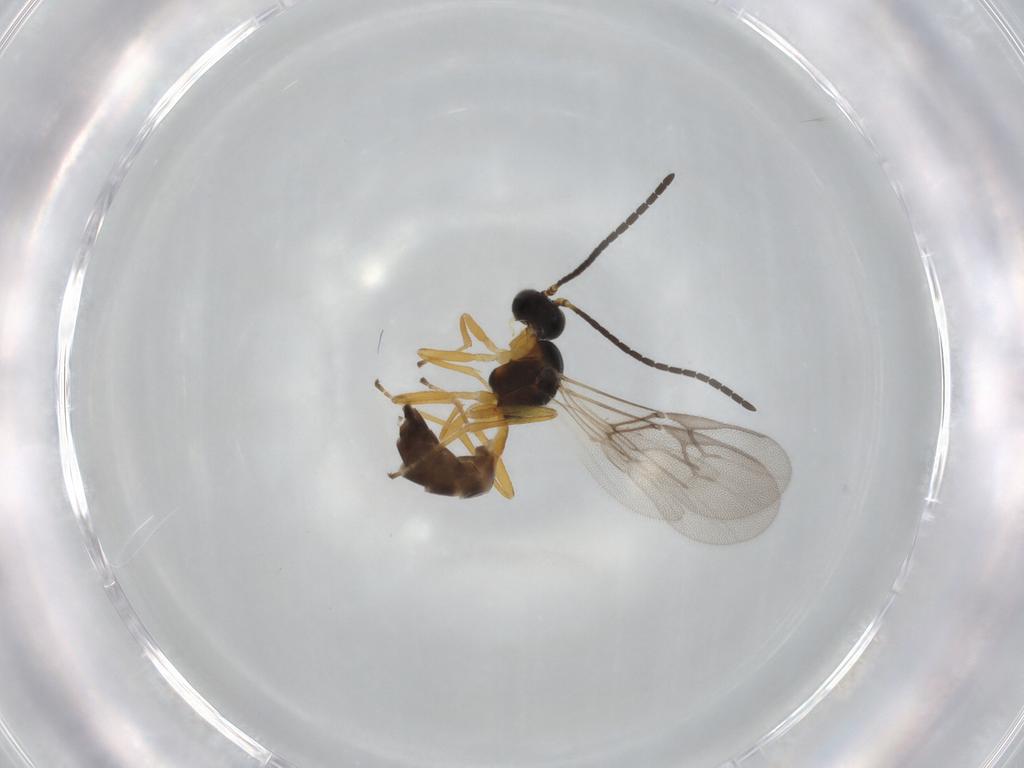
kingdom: Animalia
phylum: Arthropoda
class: Insecta
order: Hymenoptera
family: Braconidae
